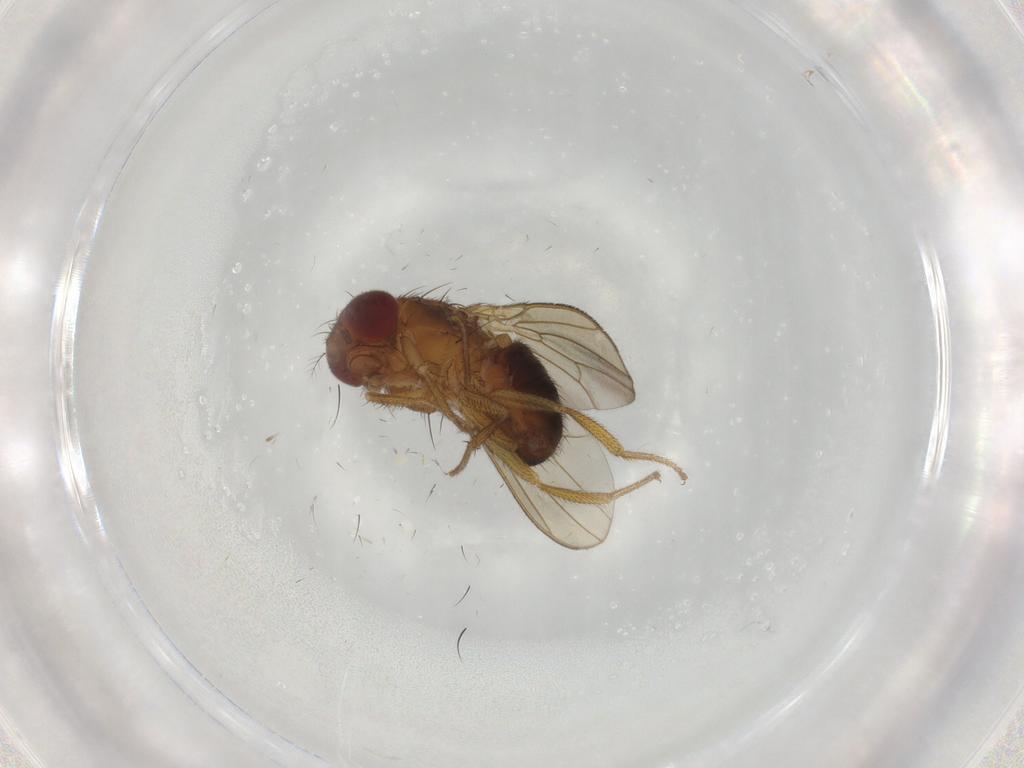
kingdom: Animalia
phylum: Arthropoda
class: Insecta
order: Diptera
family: Drosophilidae
